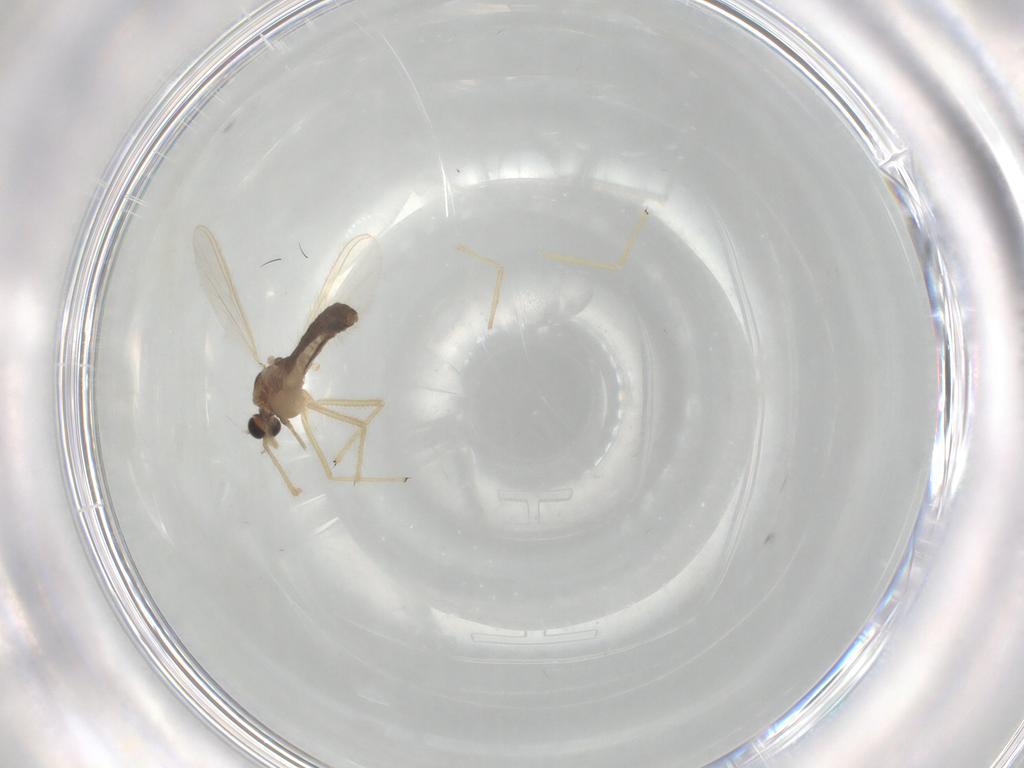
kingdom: Animalia
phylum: Arthropoda
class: Insecta
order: Diptera
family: Chironomidae
